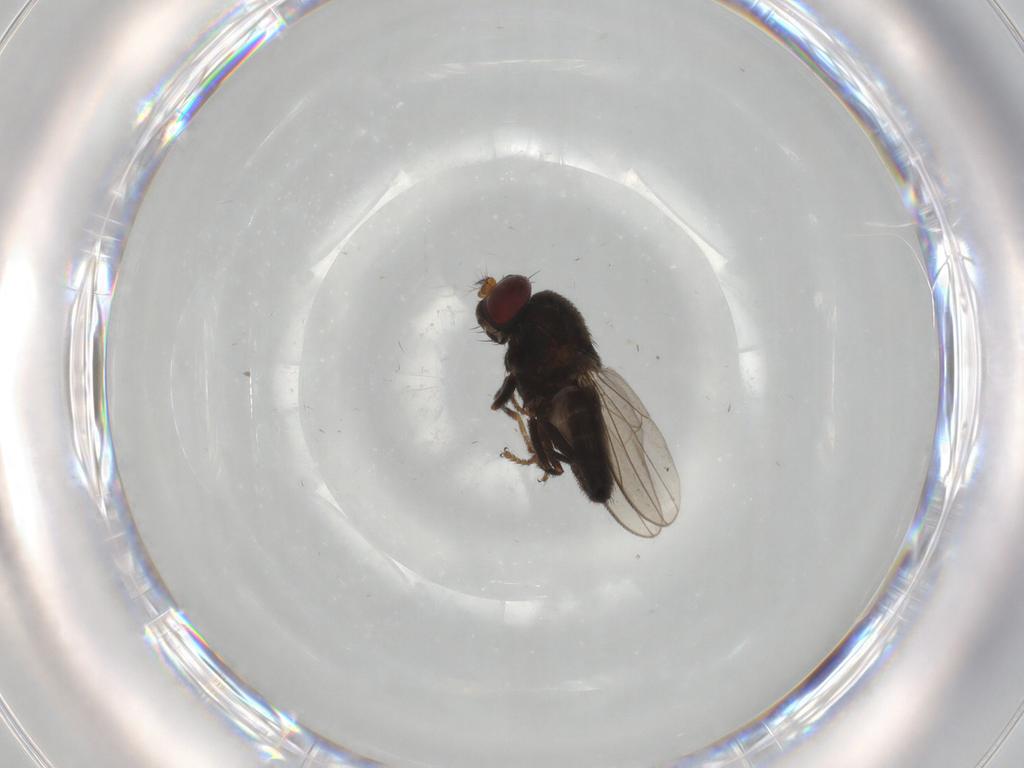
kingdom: Animalia
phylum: Arthropoda
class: Insecta
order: Diptera
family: Ephydridae
